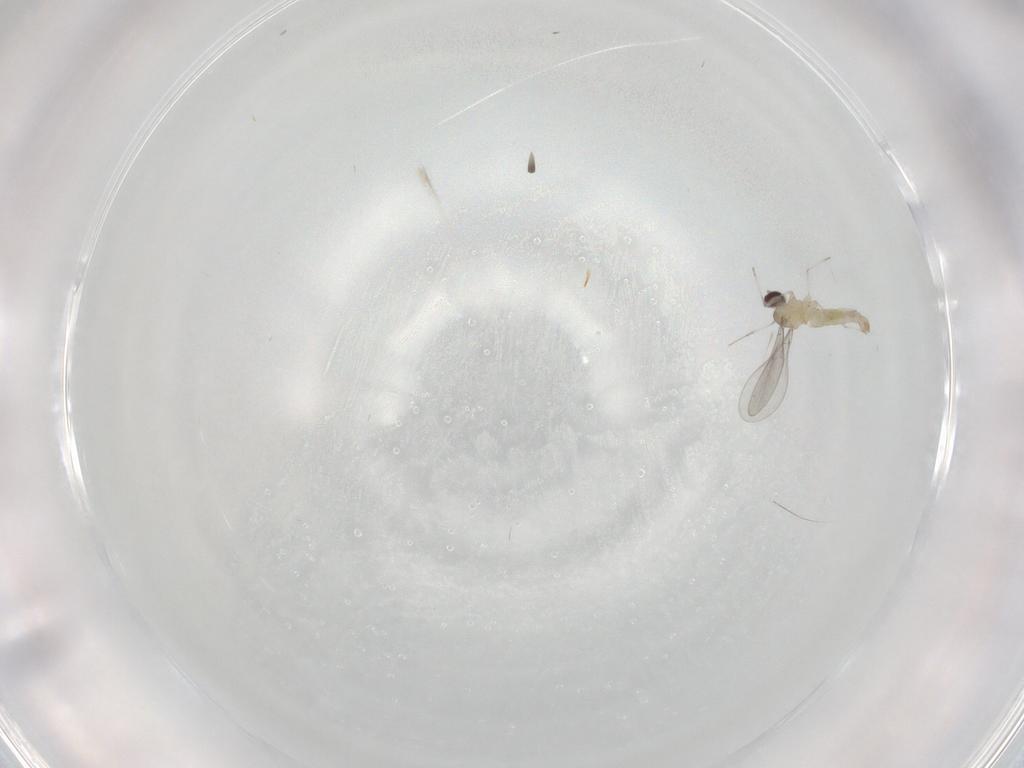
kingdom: Animalia
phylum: Arthropoda
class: Insecta
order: Diptera
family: Cecidomyiidae
